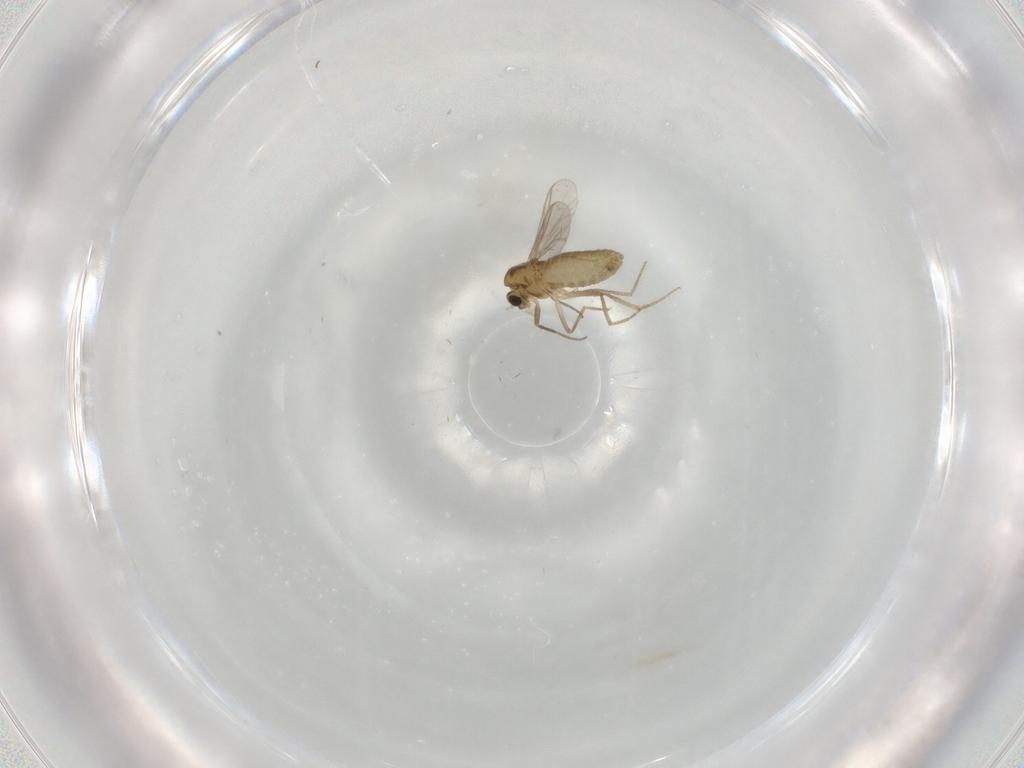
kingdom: Animalia
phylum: Arthropoda
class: Insecta
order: Diptera
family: Chironomidae
